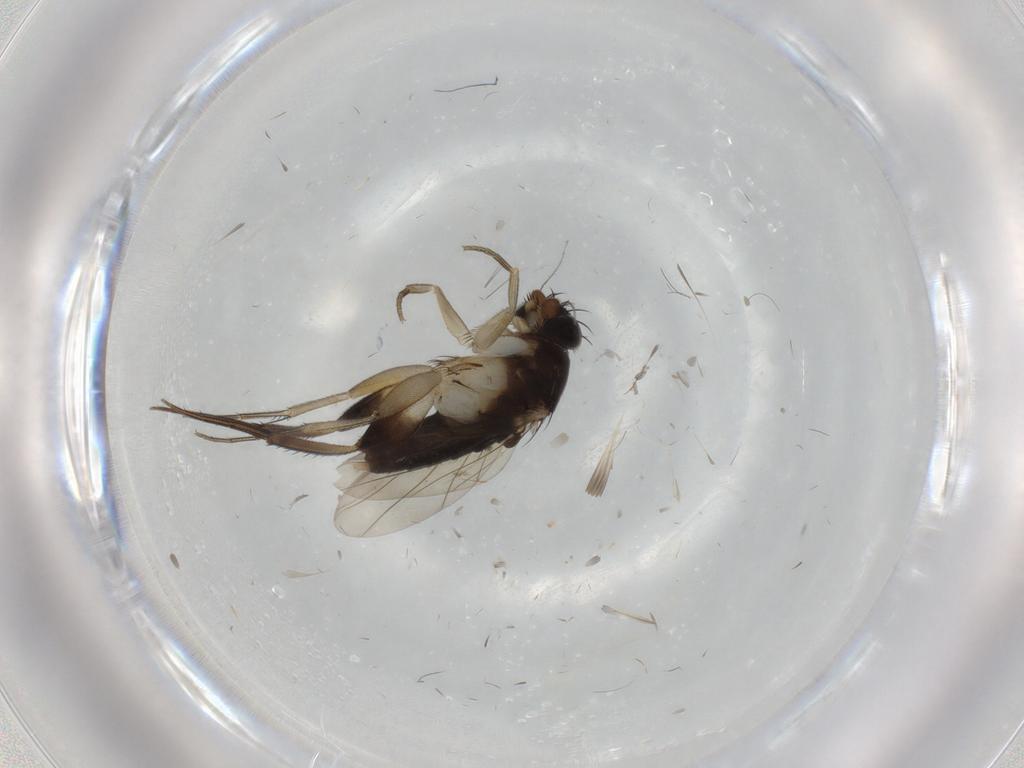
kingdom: Animalia
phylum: Arthropoda
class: Insecta
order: Diptera
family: Phoridae
